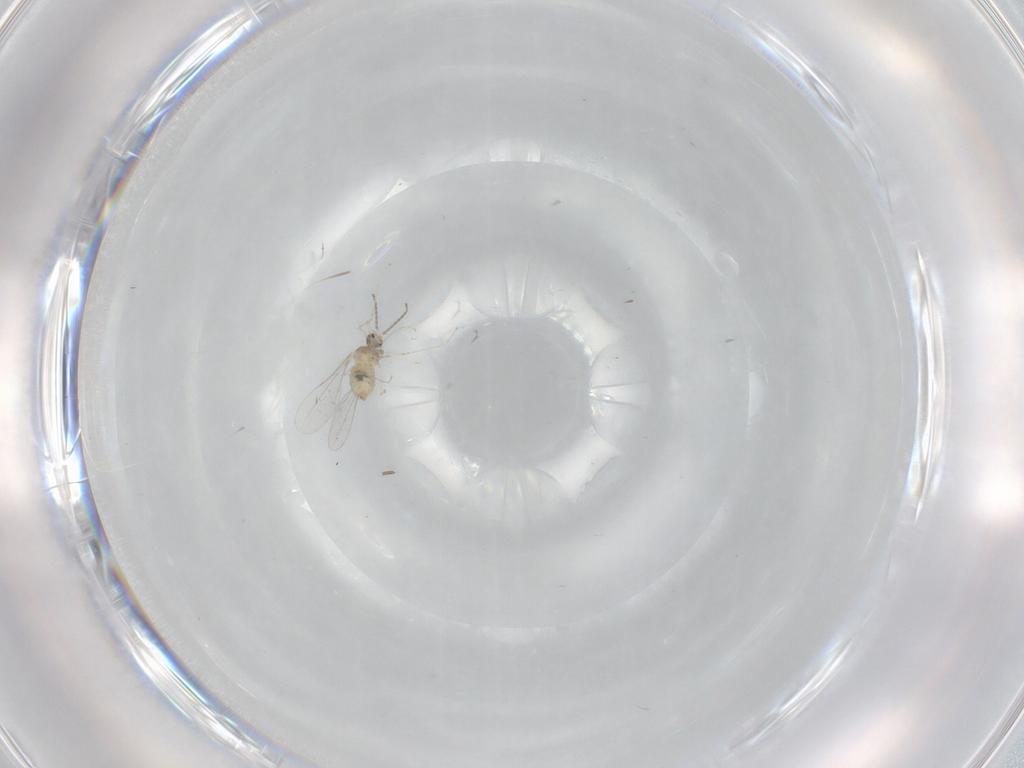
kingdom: Animalia
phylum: Arthropoda
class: Insecta
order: Diptera
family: Cecidomyiidae
